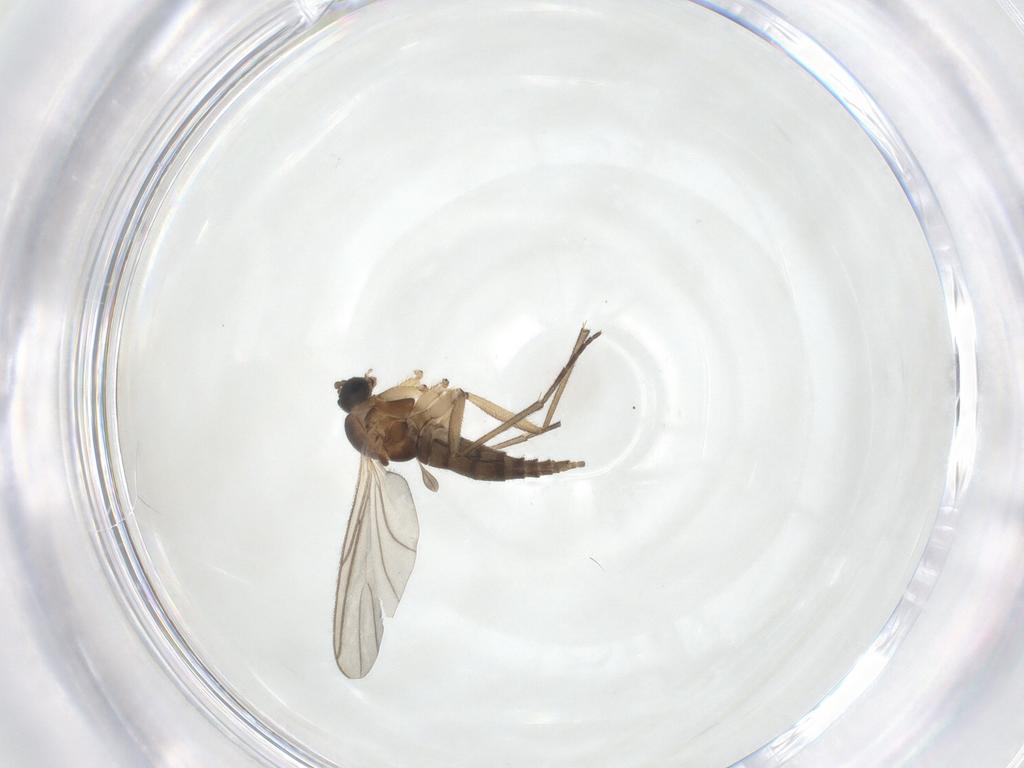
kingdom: Animalia
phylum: Arthropoda
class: Insecta
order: Diptera
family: Sciaridae
